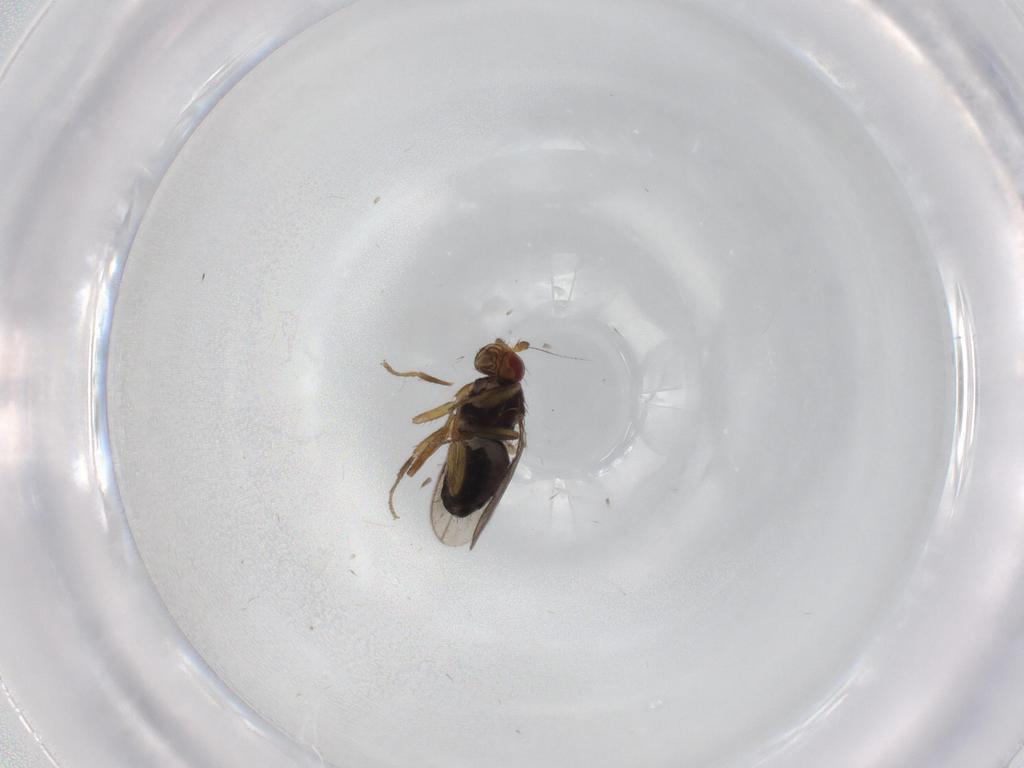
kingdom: Animalia
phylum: Arthropoda
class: Insecta
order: Diptera
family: Sphaeroceridae
